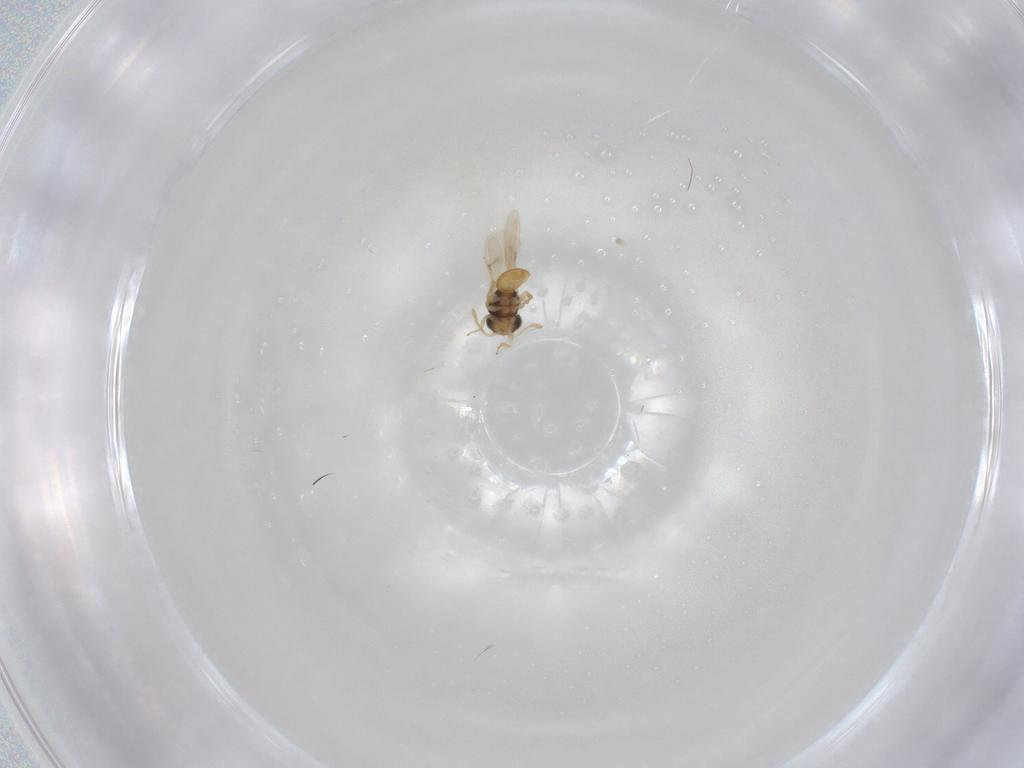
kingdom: Animalia
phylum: Arthropoda
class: Insecta
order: Hymenoptera
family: Scelionidae
